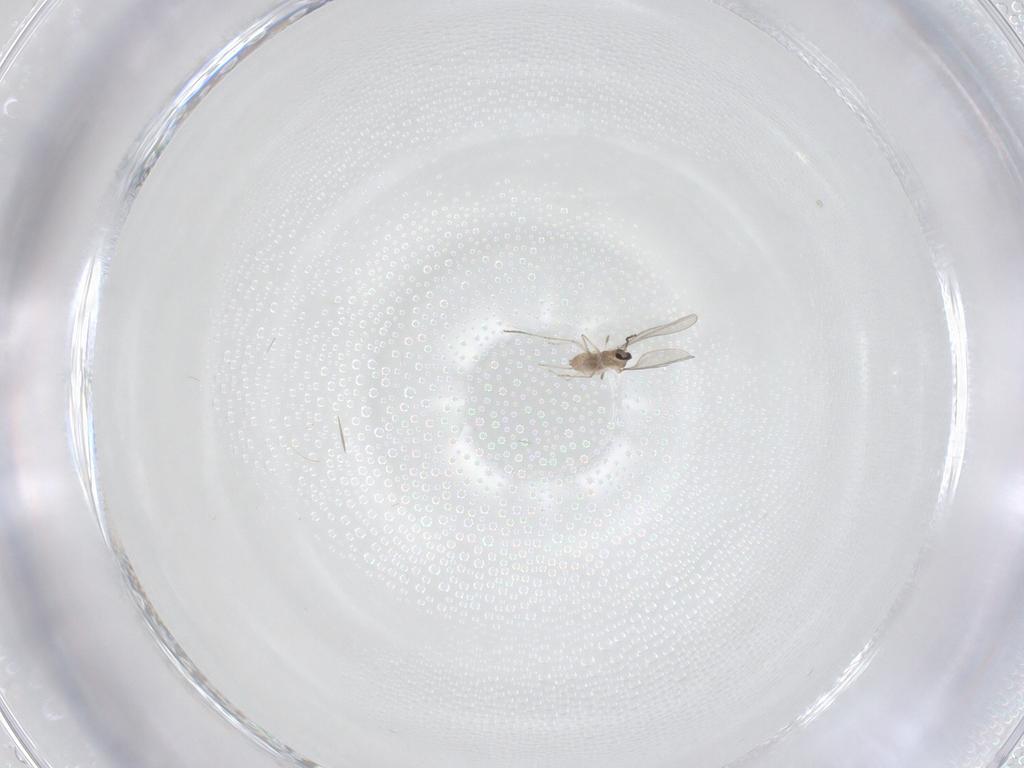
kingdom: Animalia
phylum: Arthropoda
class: Insecta
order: Diptera
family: Cecidomyiidae
